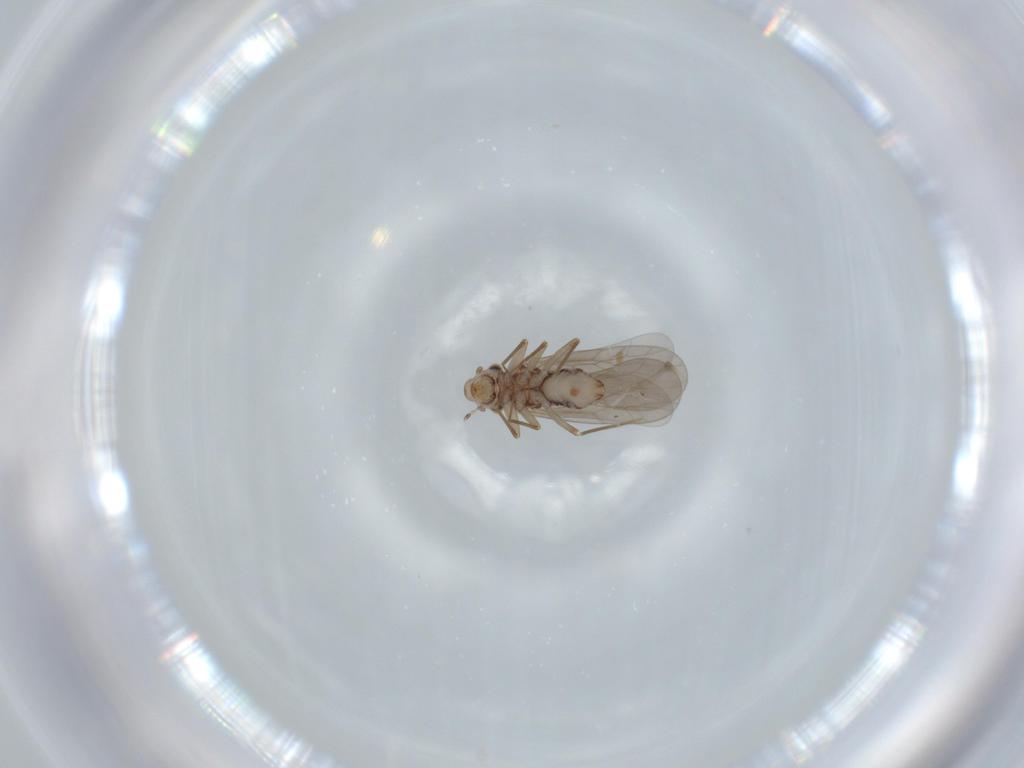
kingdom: Animalia
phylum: Arthropoda
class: Insecta
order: Psocodea
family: Lepidopsocidae
